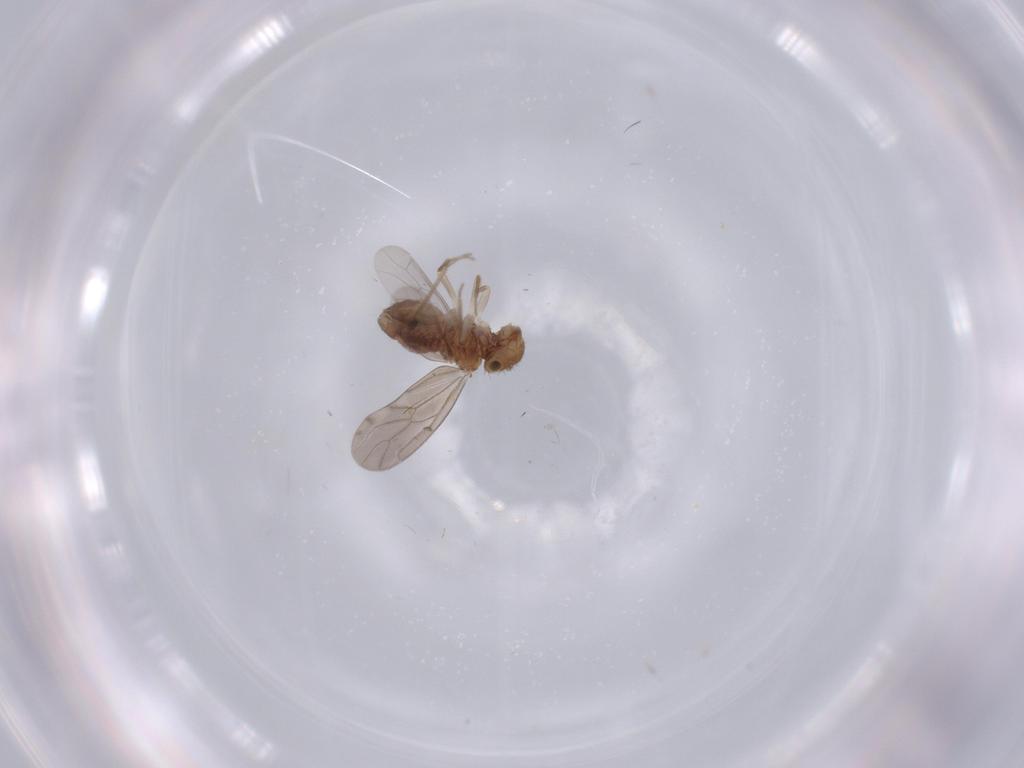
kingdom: Animalia
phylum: Arthropoda
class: Insecta
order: Psocodea
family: Ectopsocidae
